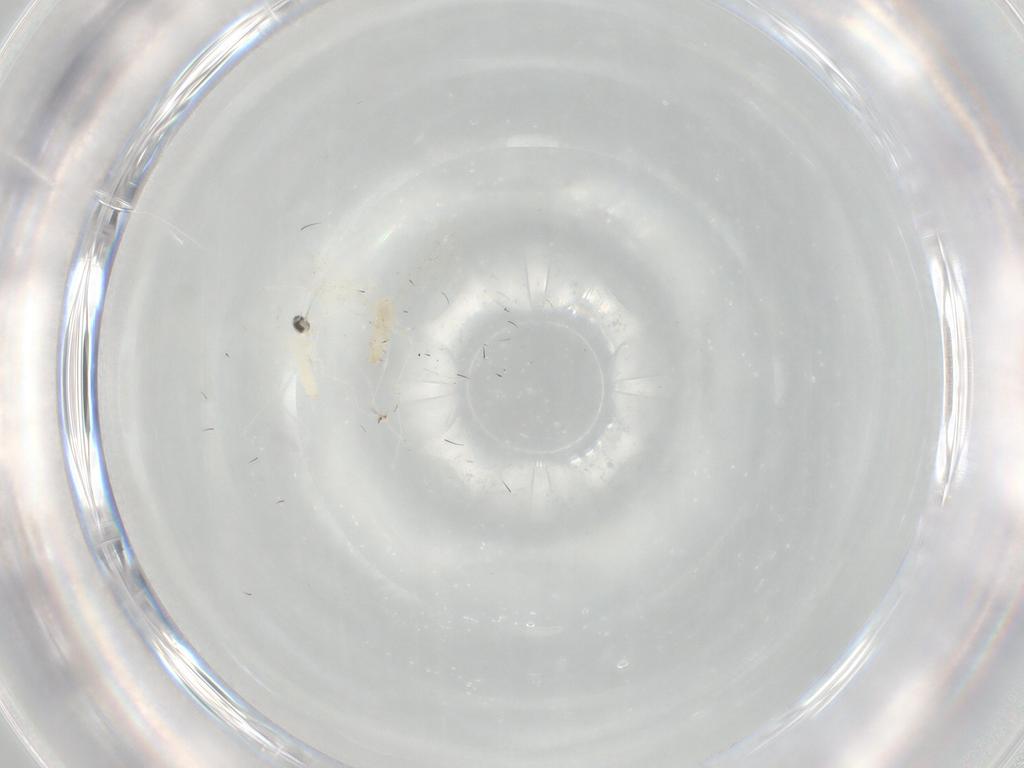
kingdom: Animalia
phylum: Arthropoda
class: Insecta
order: Diptera
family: Cecidomyiidae
